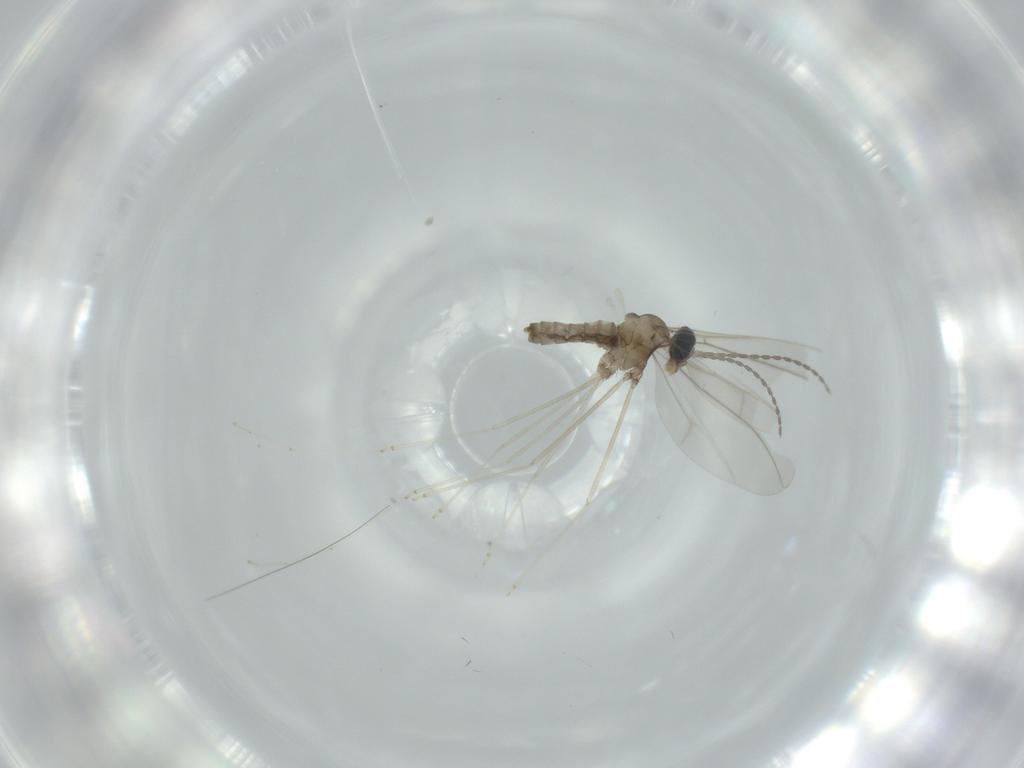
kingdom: Animalia
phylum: Arthropoda
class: Insecta
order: Diptera
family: Cecidomyiidae
